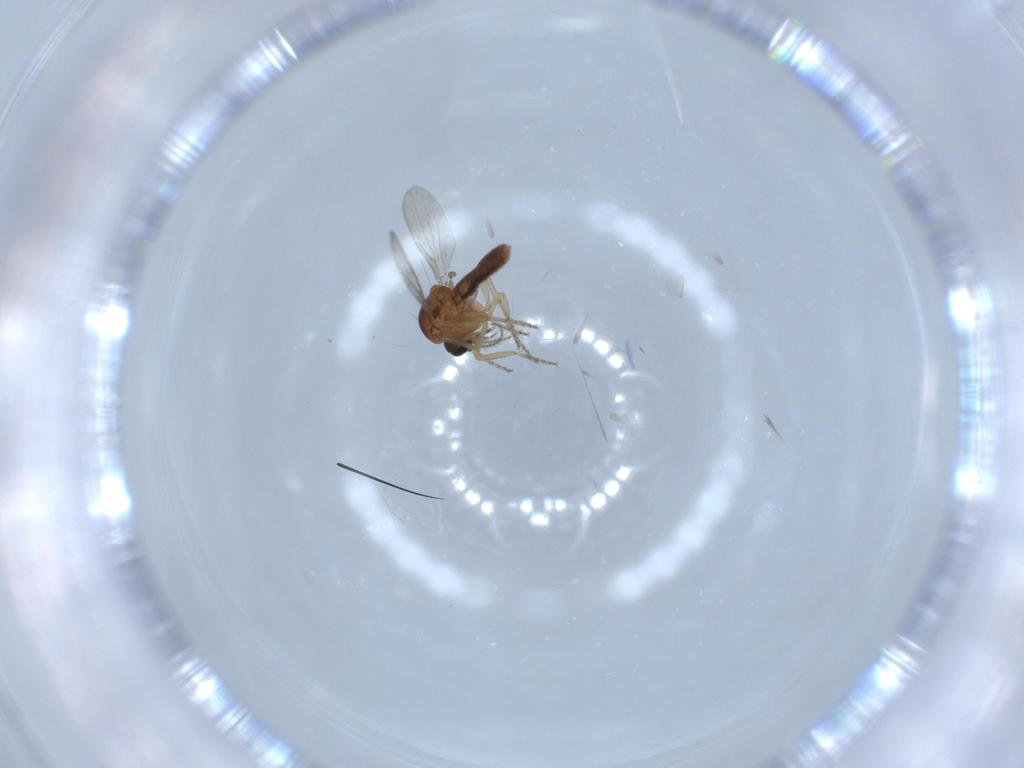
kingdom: Animalia
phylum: Arthropoda
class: Insecta
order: Diptera
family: Ceratopogonidae
